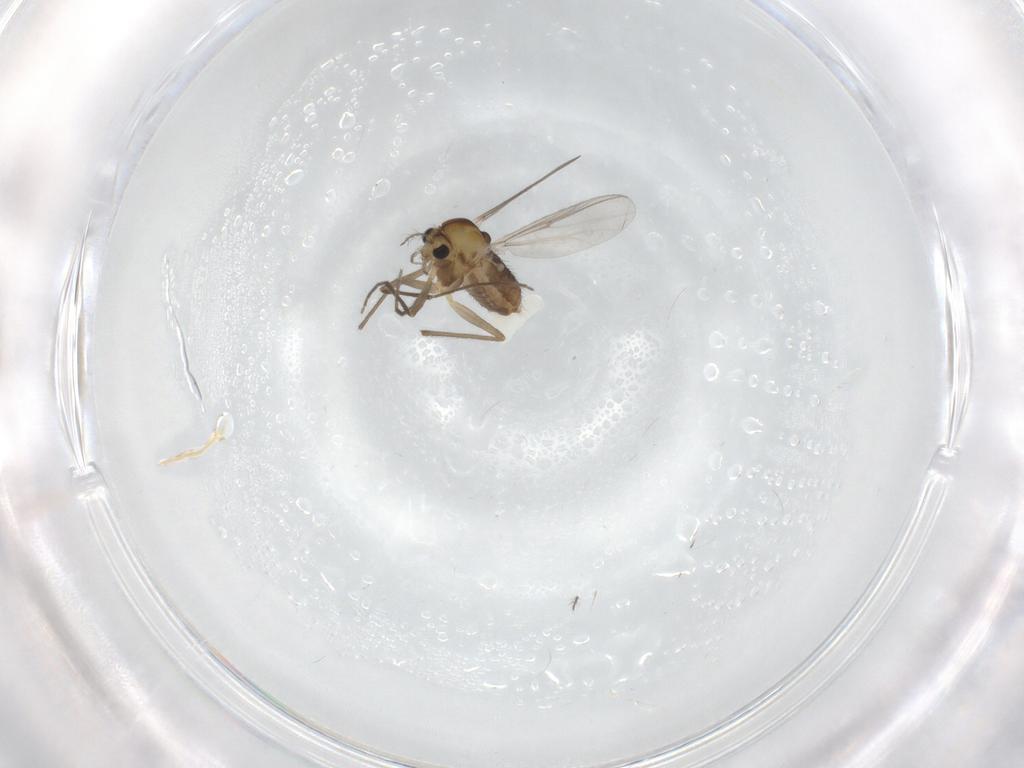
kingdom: Animalia
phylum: Arthropoda
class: Insecta
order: Diptera
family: Chironomidae
